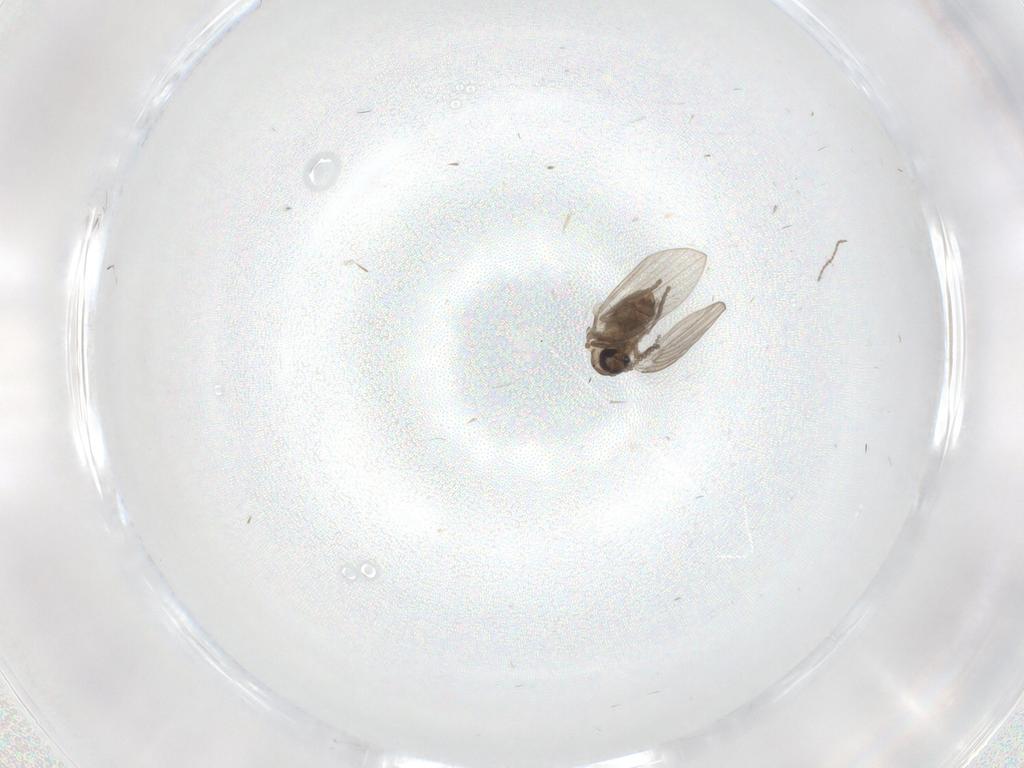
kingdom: Animalia
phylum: Arthropoda
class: Insecta
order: Diptera
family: Psychodidae
